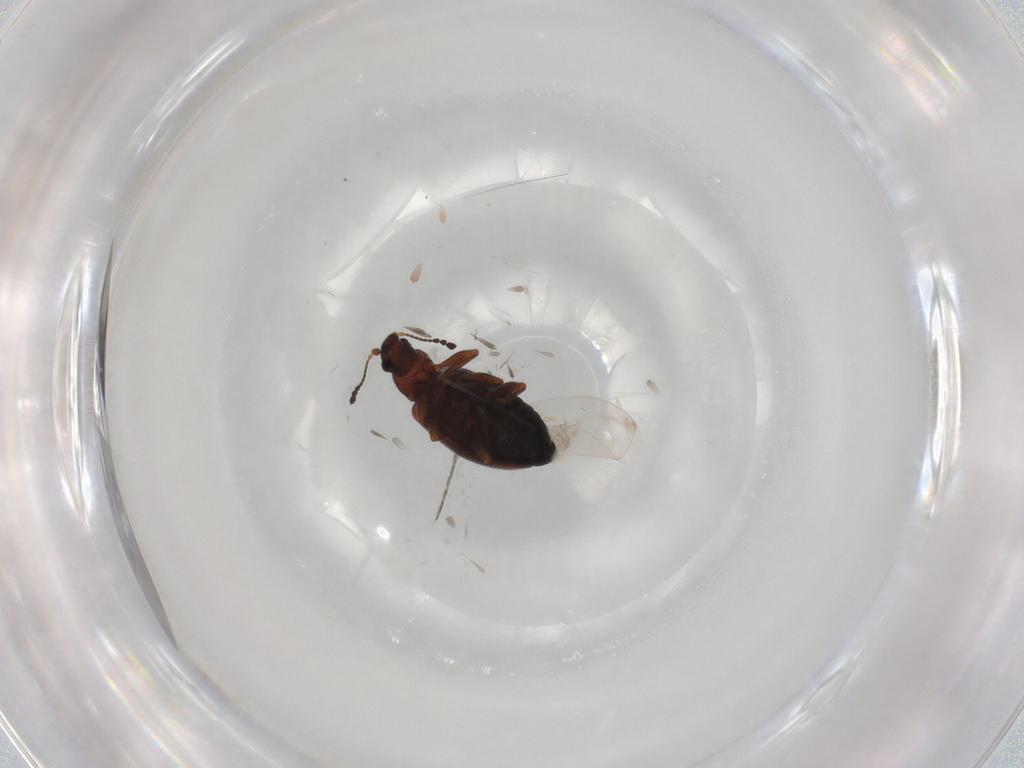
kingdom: Animalia
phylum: Arthropoda
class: Insecta
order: Coleoptera
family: Latridiidae
